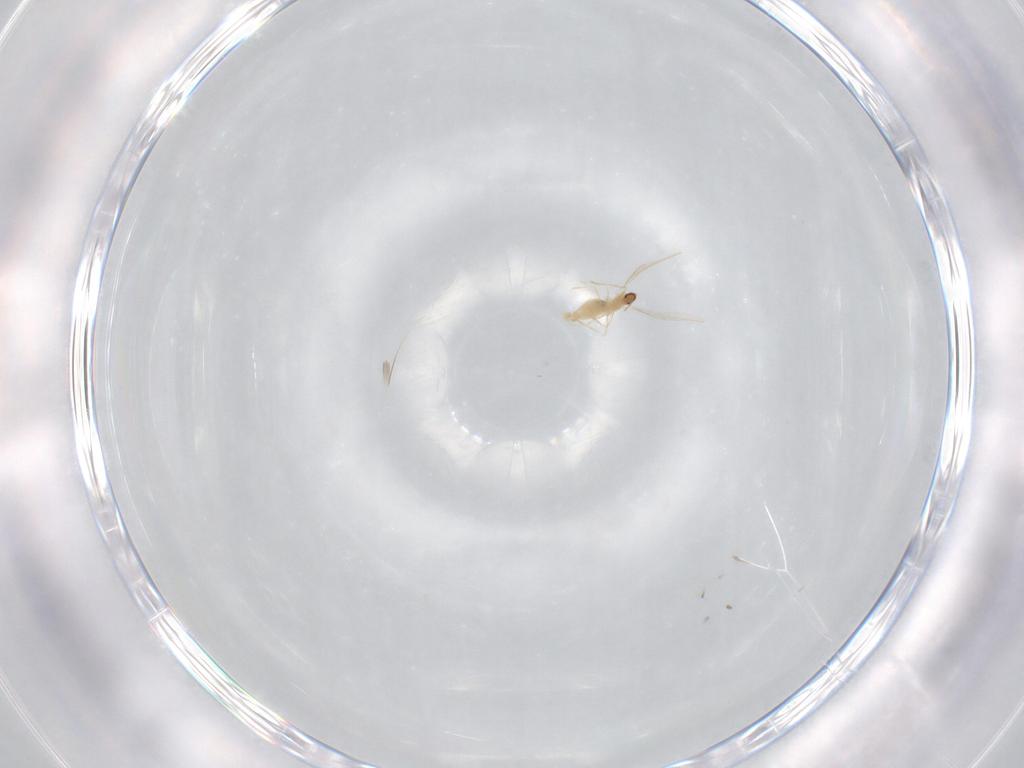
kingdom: Animalia
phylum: Arthropoda
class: Insecta
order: Diptera
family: Cecidomyiidae
